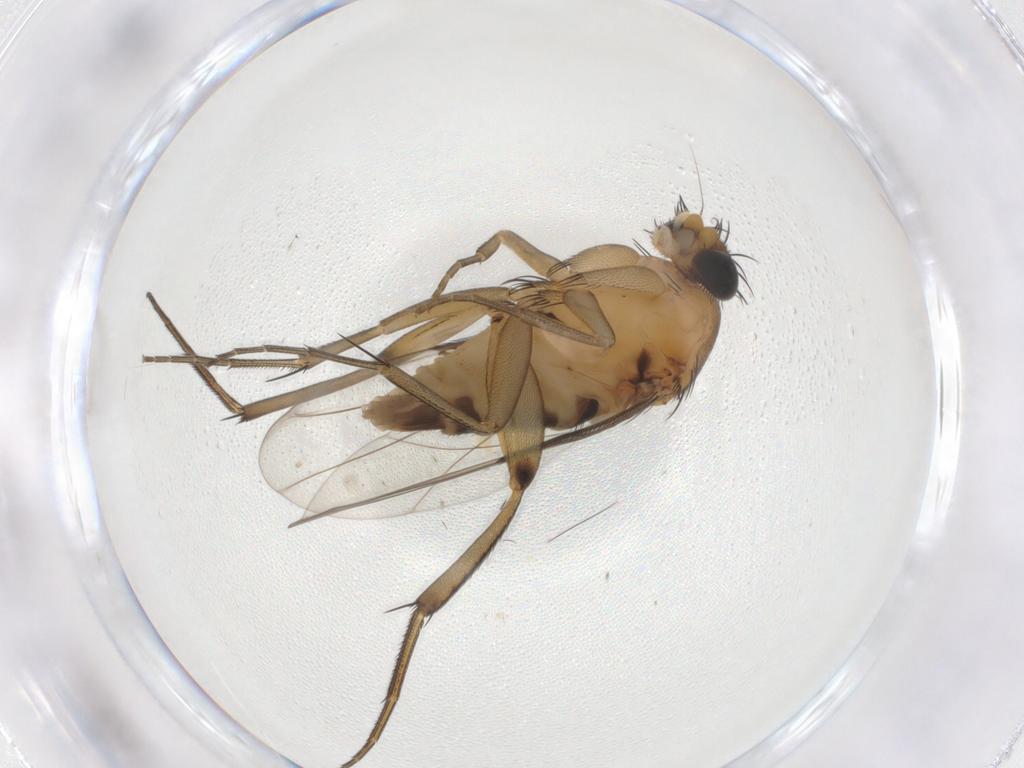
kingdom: Animalia
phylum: Arthropoda
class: Insecta
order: Diptera
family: Phoridae
